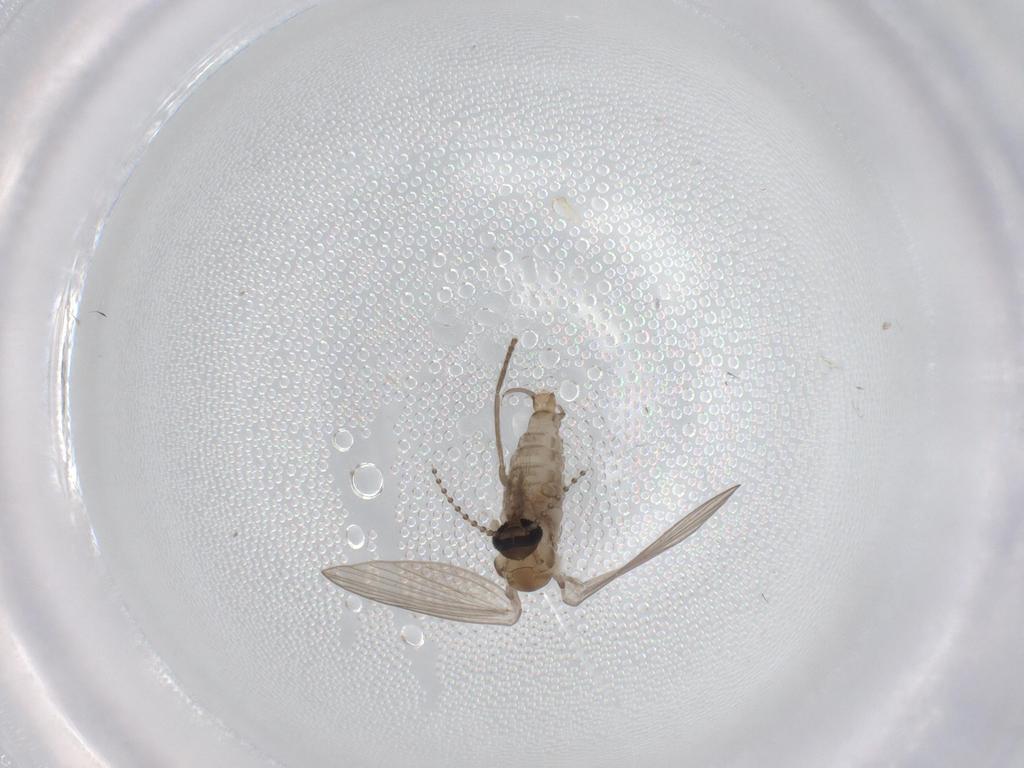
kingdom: Animalia
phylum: Arthropoda
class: Insecta
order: Diptera
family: Psychodidae
